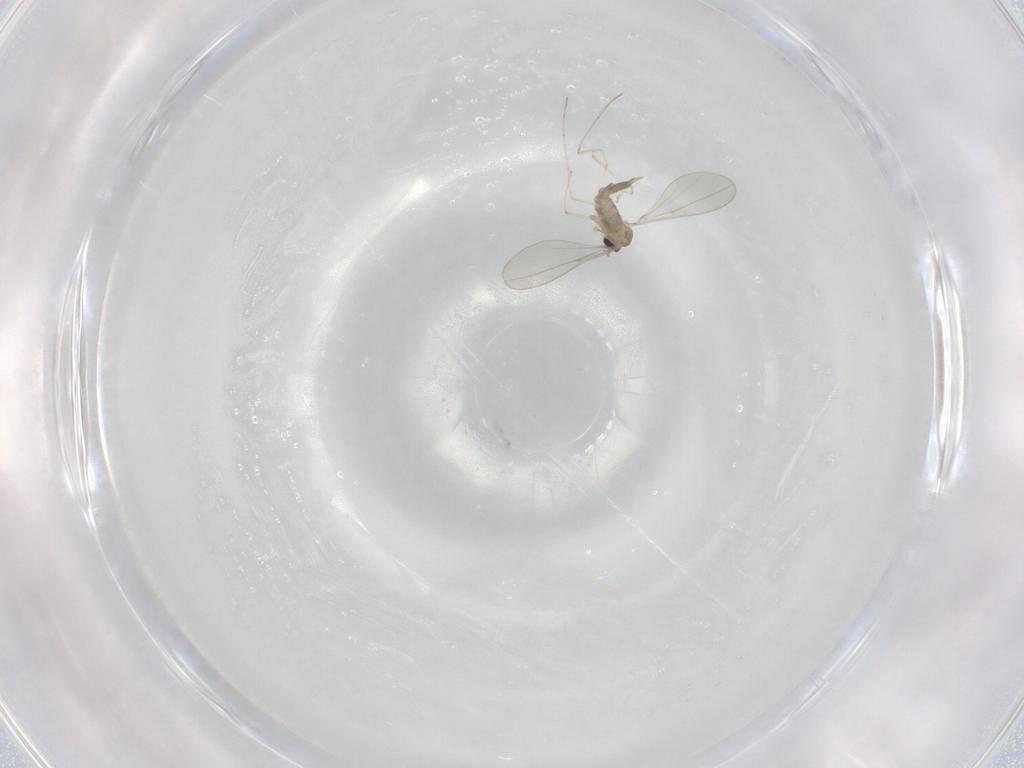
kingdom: Animalia
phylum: Arthropoda
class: Insecta
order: Diptera
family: Cecidomyiidae
